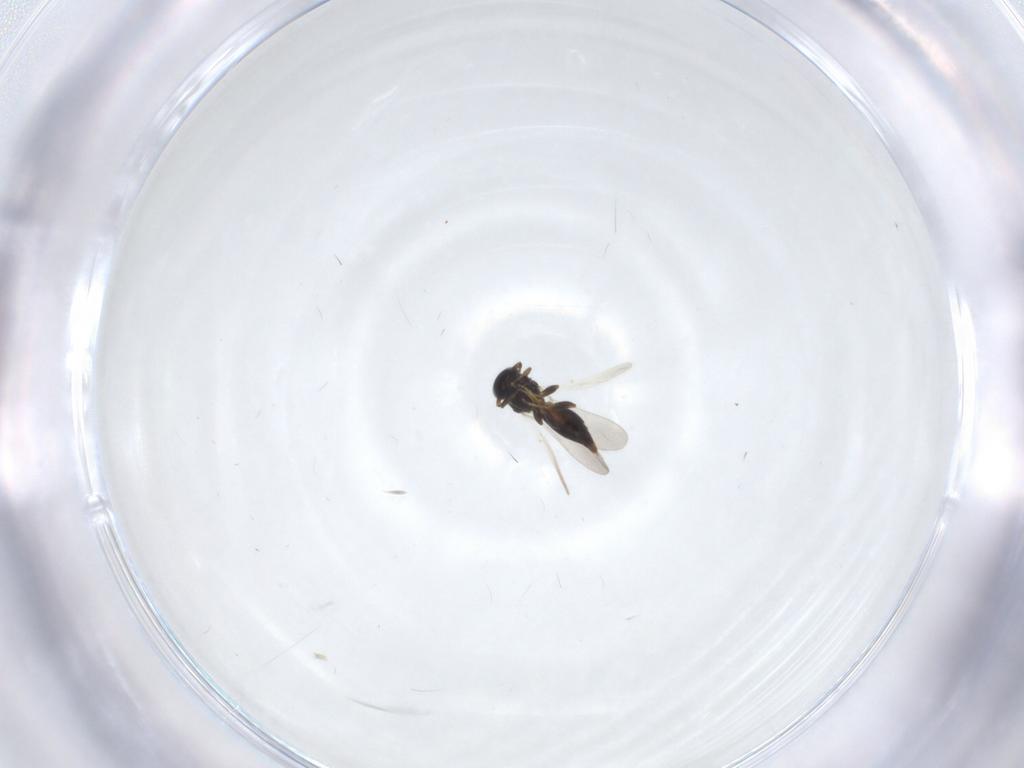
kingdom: Animalia
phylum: Arthropoda
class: Insecta
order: Hymenoptera
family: Platygastridae
